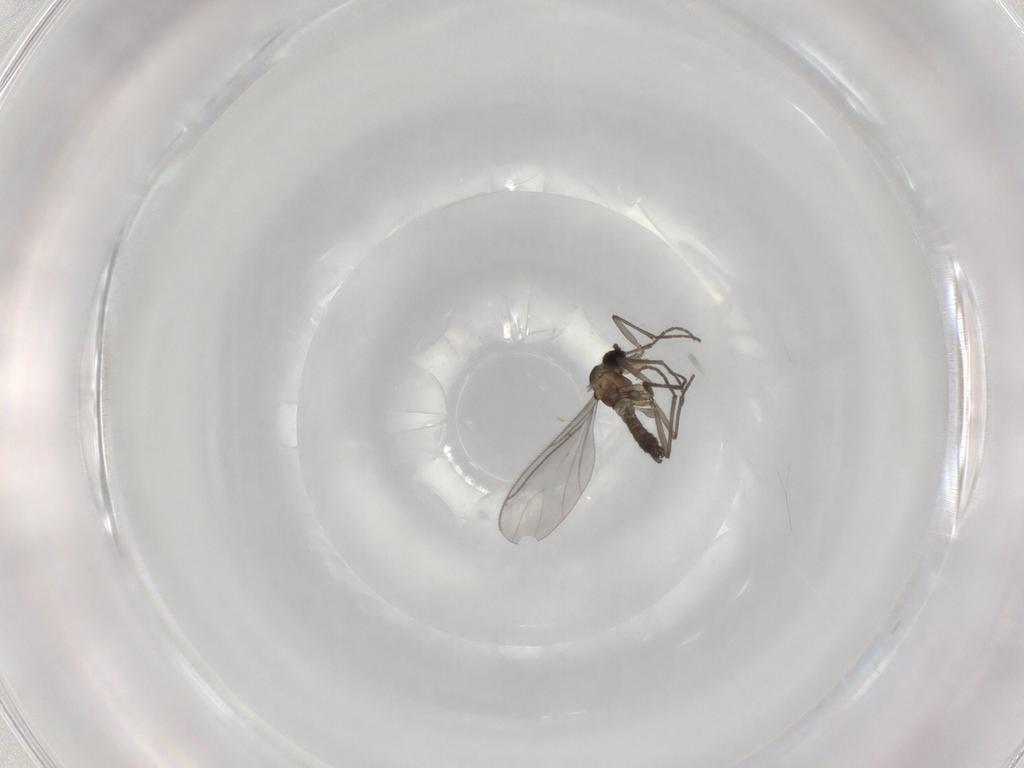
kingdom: Animalia
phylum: Arthropoda
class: Insecta
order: Diptera
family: Sciaridae
